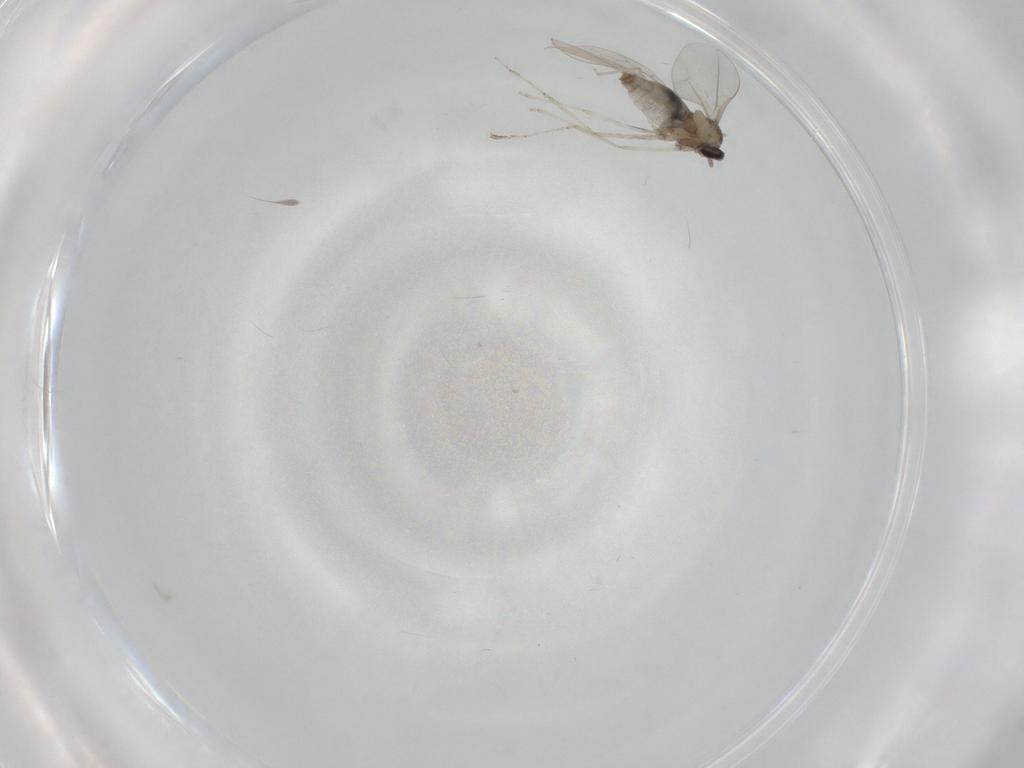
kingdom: Animalia
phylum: Arthropoda
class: Insecta
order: Diptera
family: Cecidomyiidae
